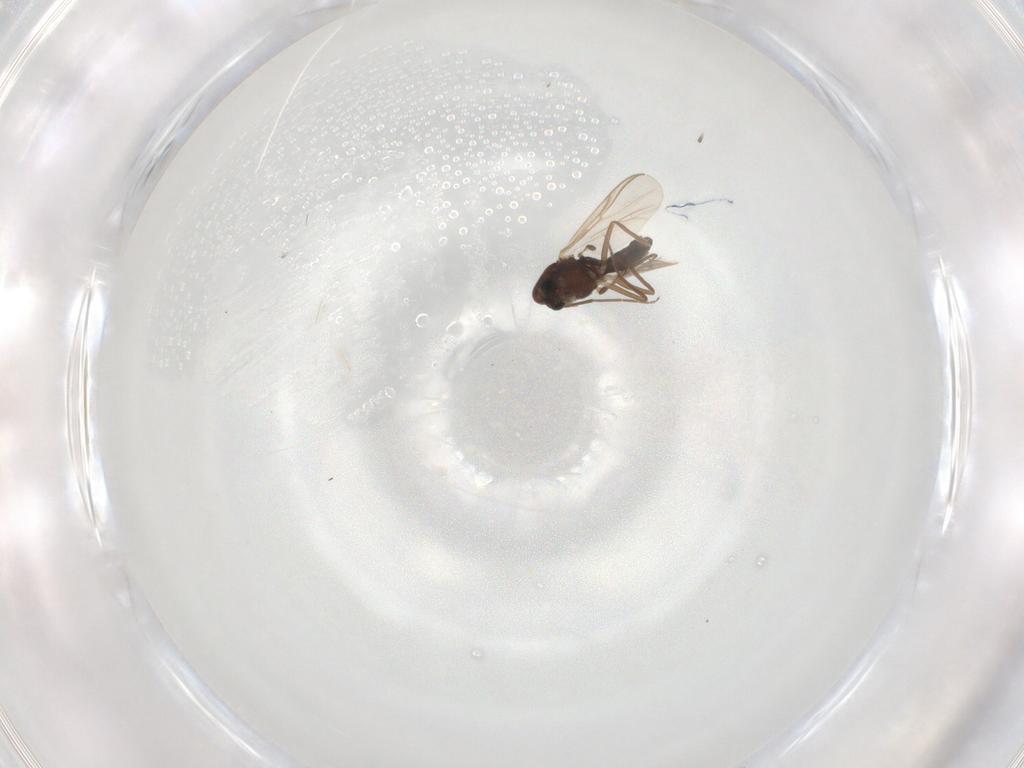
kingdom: Animalia
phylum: Arthropoda
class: Insecta
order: Diptera
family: Chironomidae
